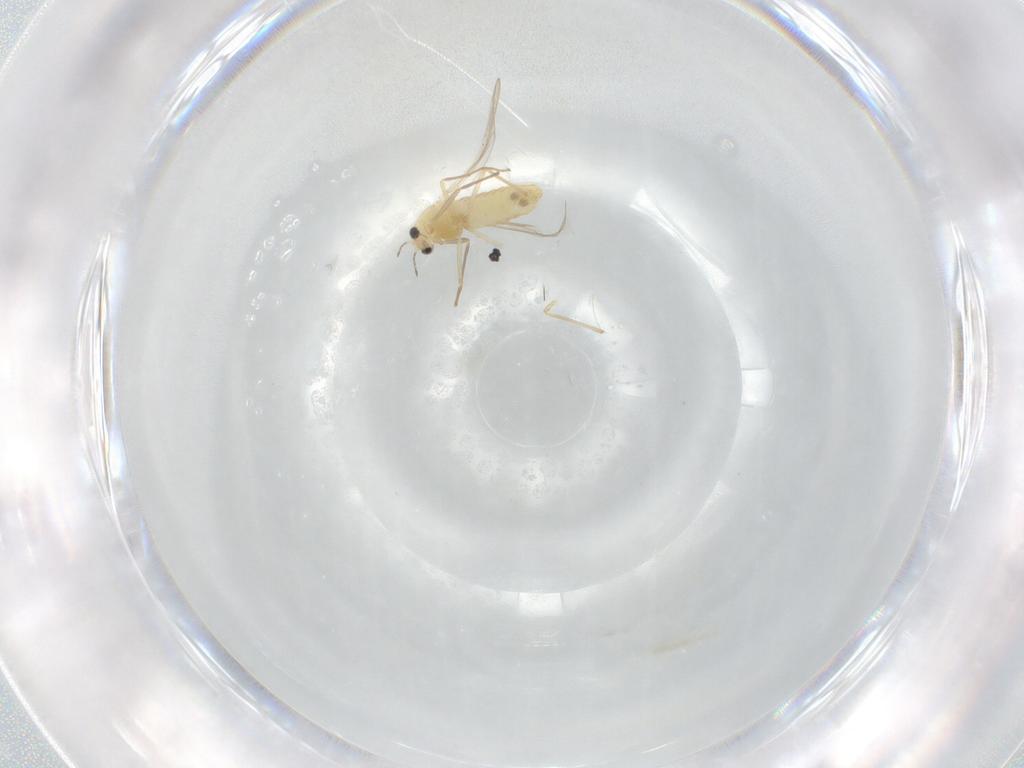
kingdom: Animalia
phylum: Arthropoda
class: Insecta
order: Diptera
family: Chironomidae
